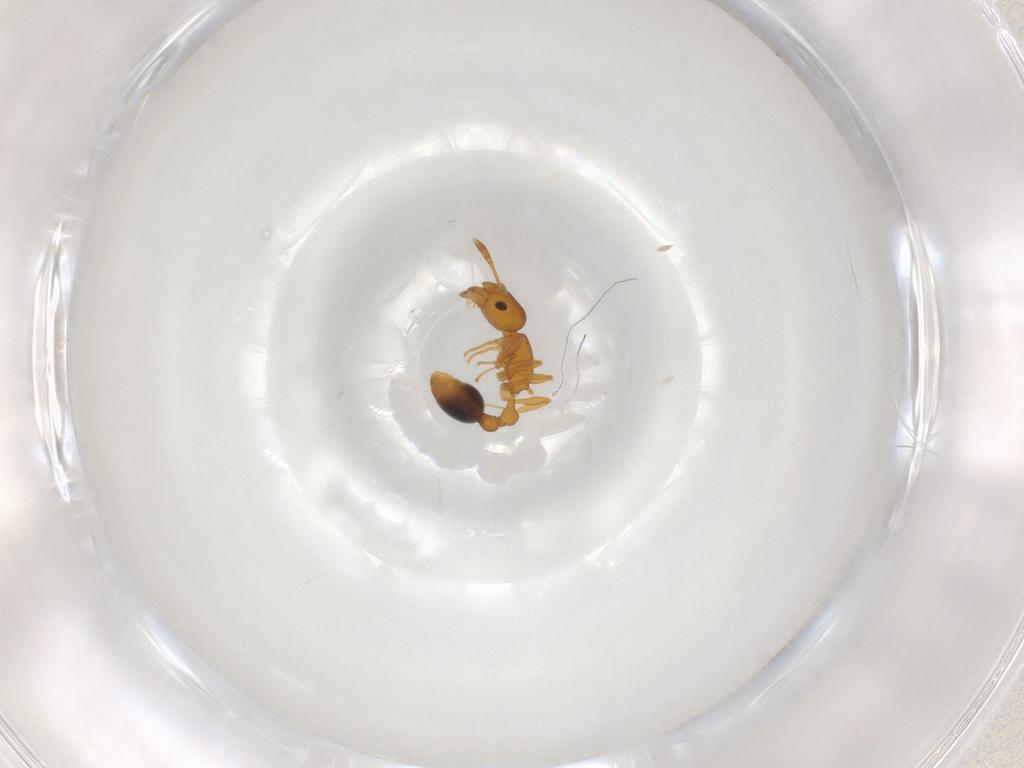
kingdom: Animalia
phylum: Arthropoda
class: Insecta
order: Hymenoptera
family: Formicidae
